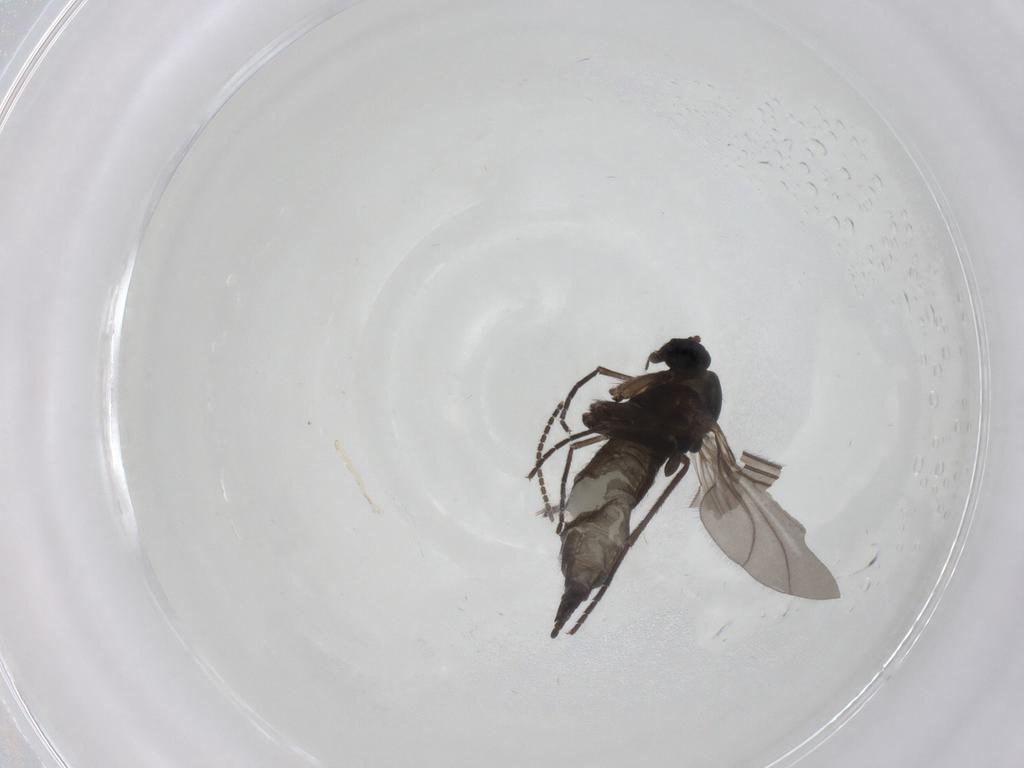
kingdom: Animalia
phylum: Arthropoda
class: Insecta
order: Diptera
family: Sciaridae
